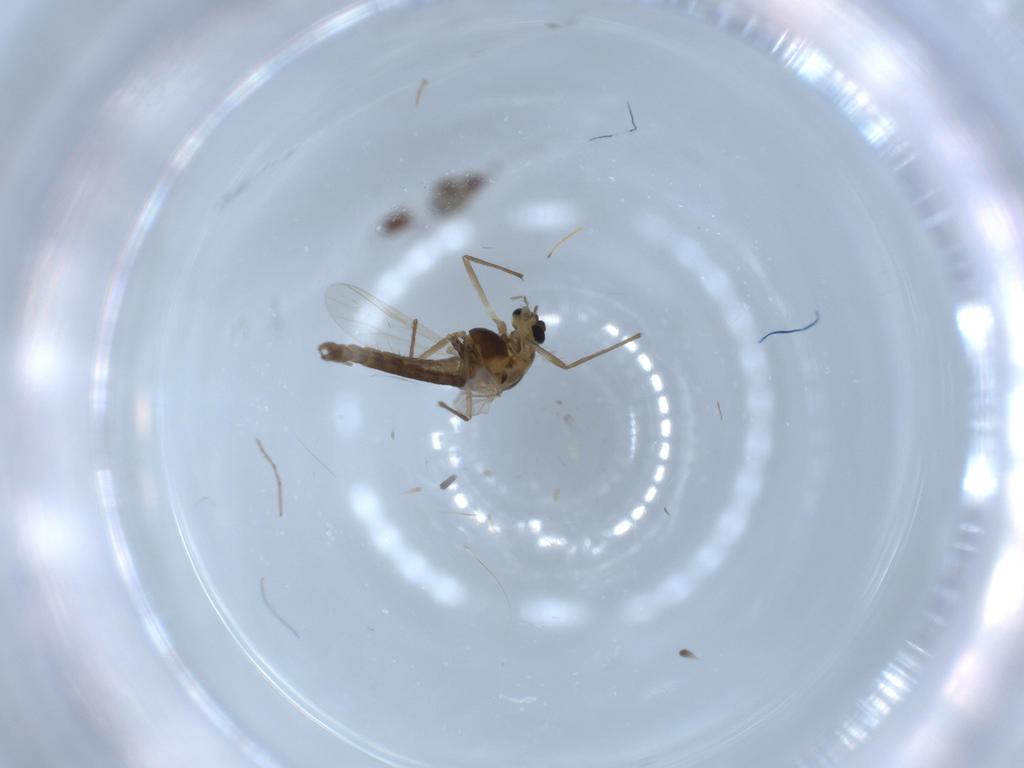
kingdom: Animalia
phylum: Arthropoda
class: Insecta
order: Diptera
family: Chironomidae
